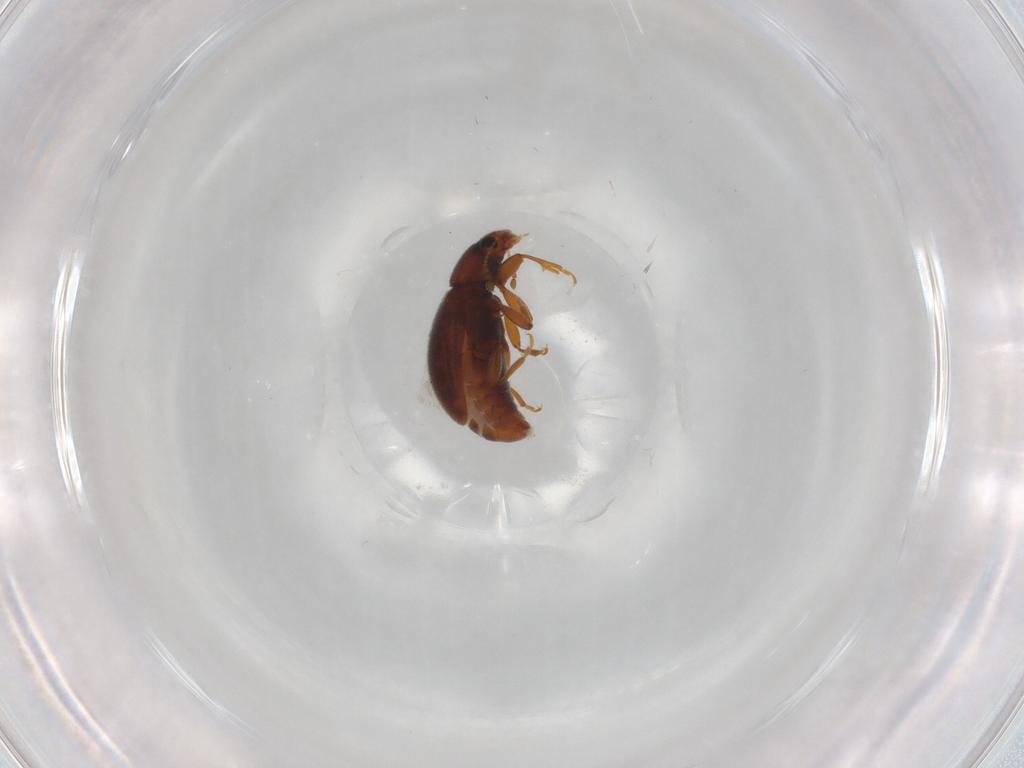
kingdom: Animalia
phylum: Arthropoda
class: Insecta
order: Coleoptera
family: Latridiidae
